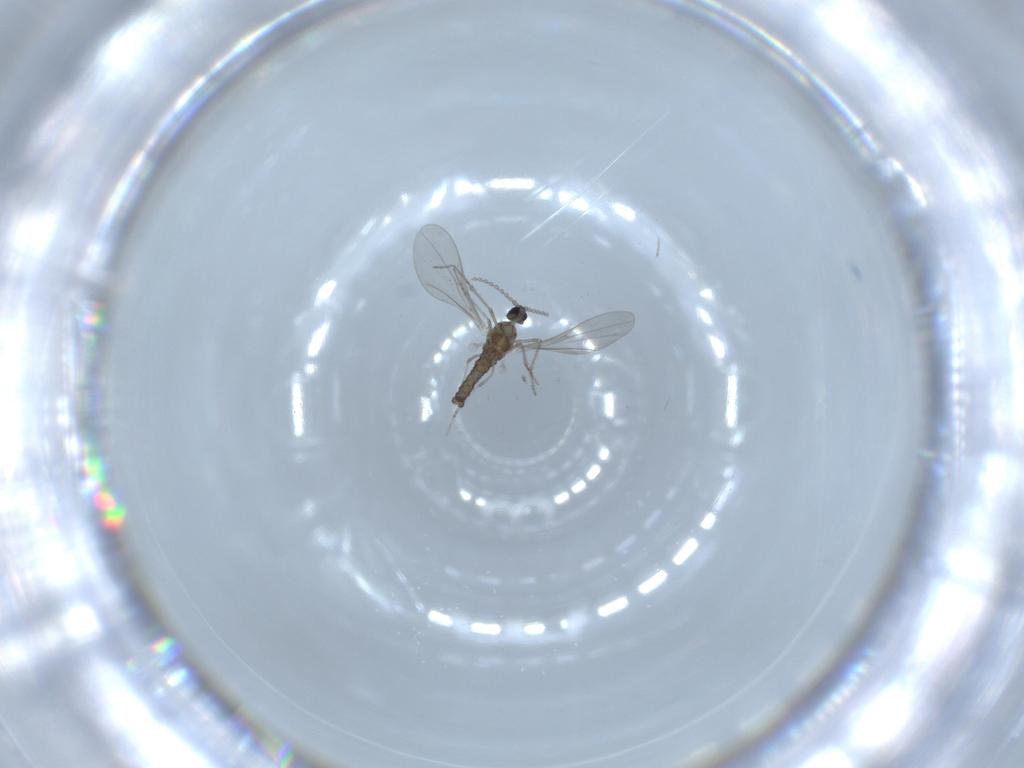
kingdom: Animalia
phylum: Arthropoda
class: Insecta
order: Diptera
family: Cecidomyiidae
